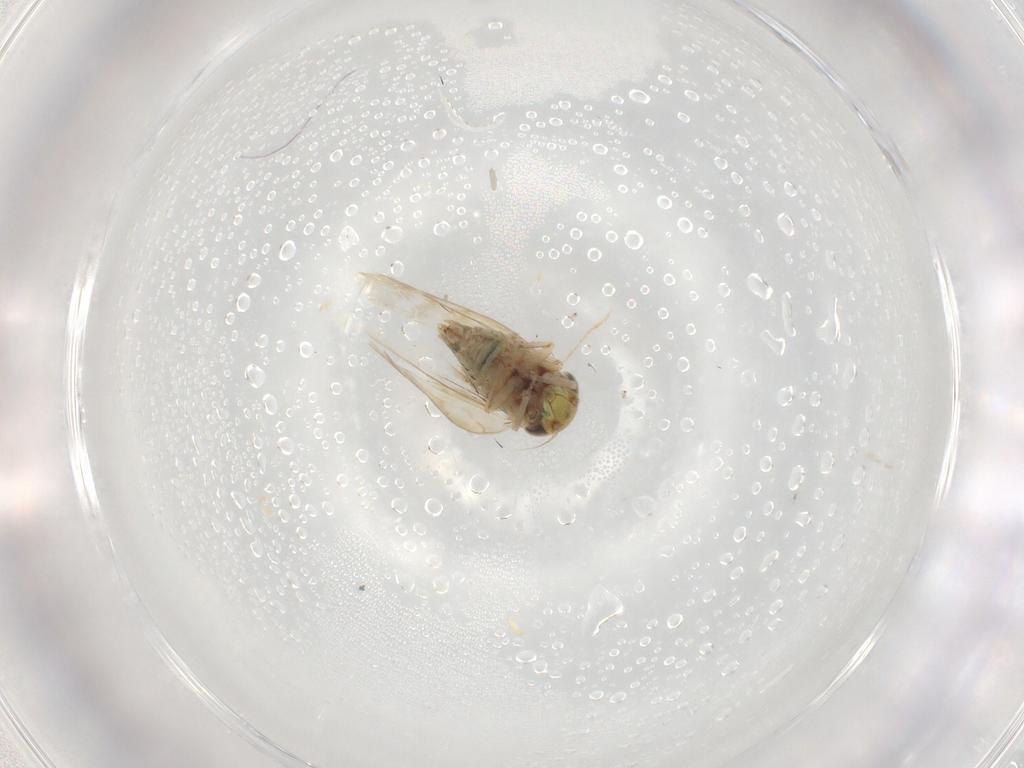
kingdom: Animalia
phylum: Arthropoda
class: Insecta
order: Hemiptera
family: Cicadellidae
